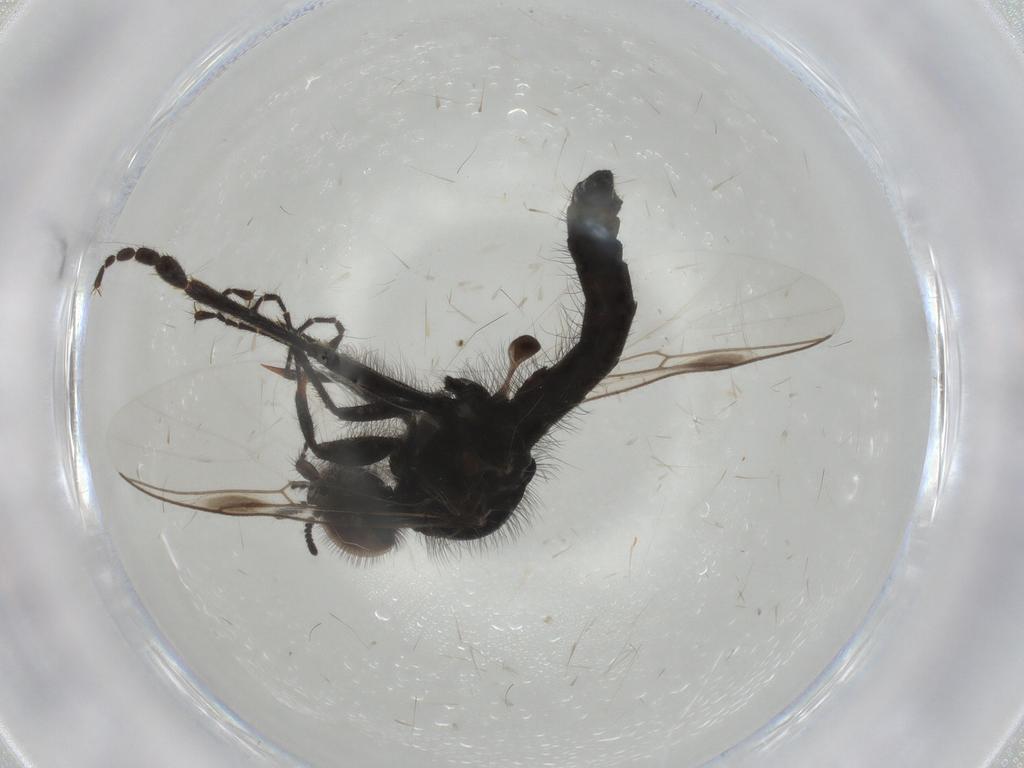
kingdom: Animalia
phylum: Arthropoda
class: Insecta
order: Diptera
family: Bibionidae
